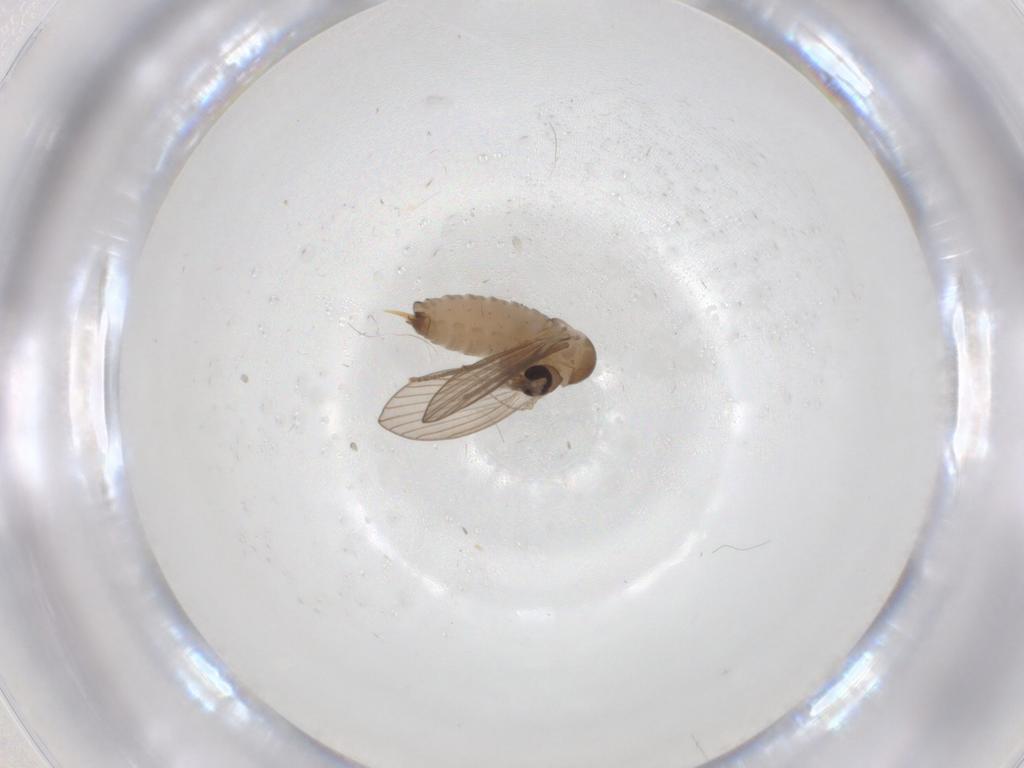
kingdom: Animalia
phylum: Arthropoda
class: Insecta
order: Diptera
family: Psychodidae
